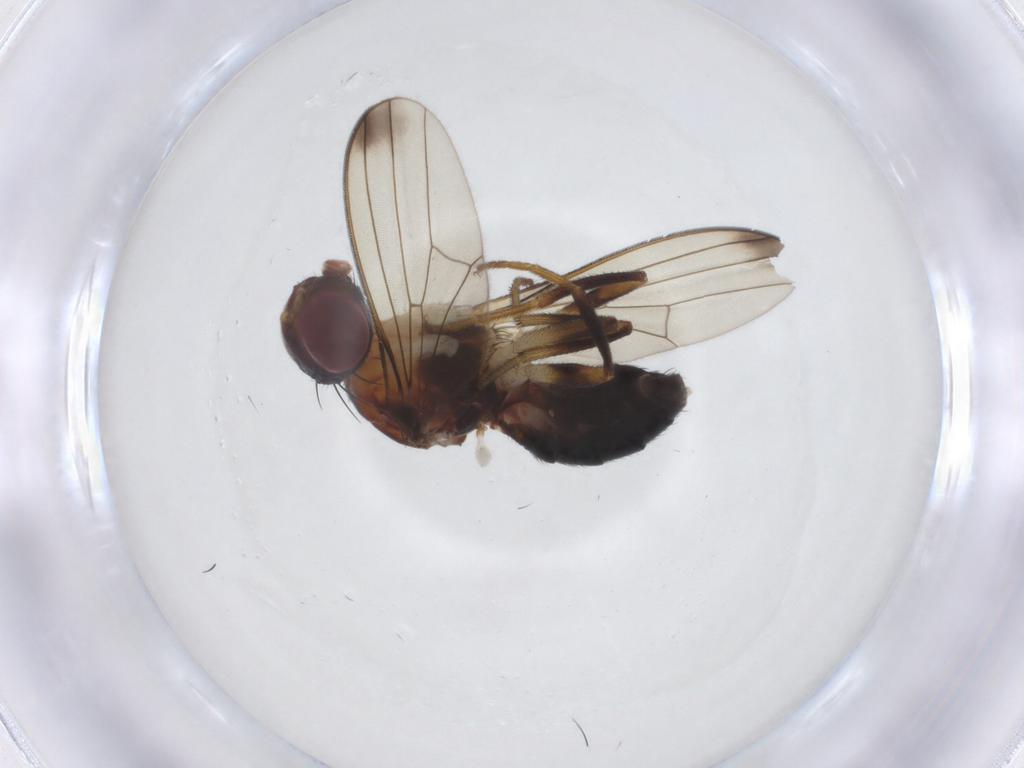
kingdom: Animalia
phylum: Arthropoda
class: Insecta
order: Diptera
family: Piophilidae
